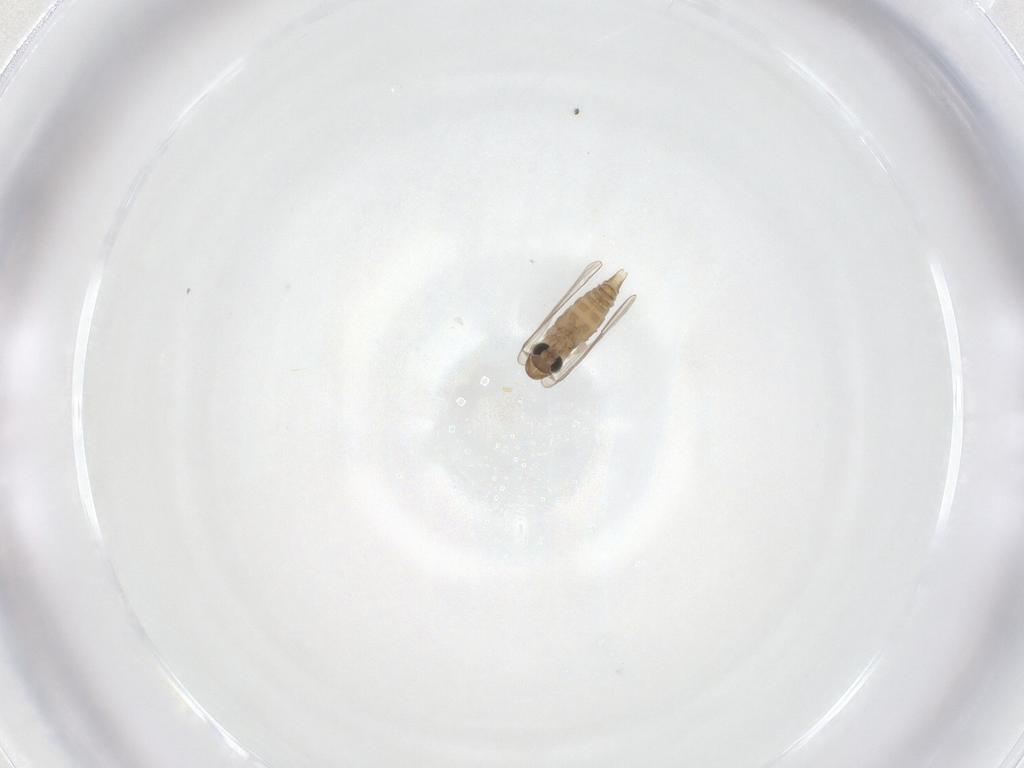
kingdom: Animalia
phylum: Arthropoda
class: Insecta
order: Diptera
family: Psychodidae
